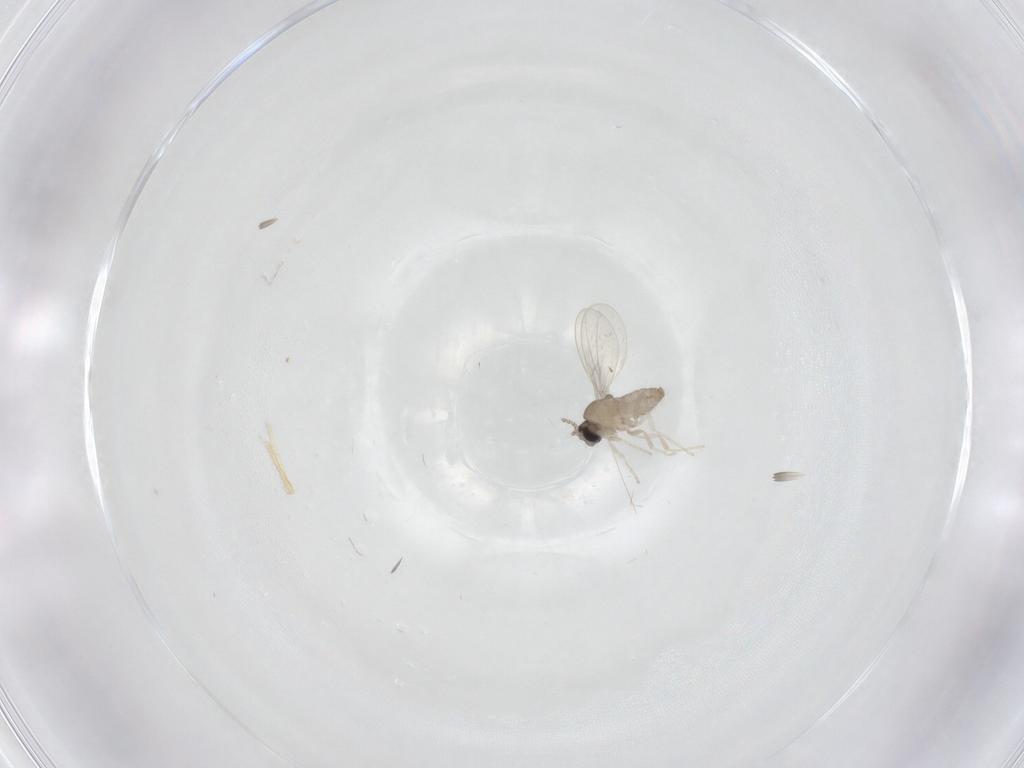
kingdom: Animalia
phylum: Arthropoda
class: Insecta
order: Diptera
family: Cecidomyiidae
